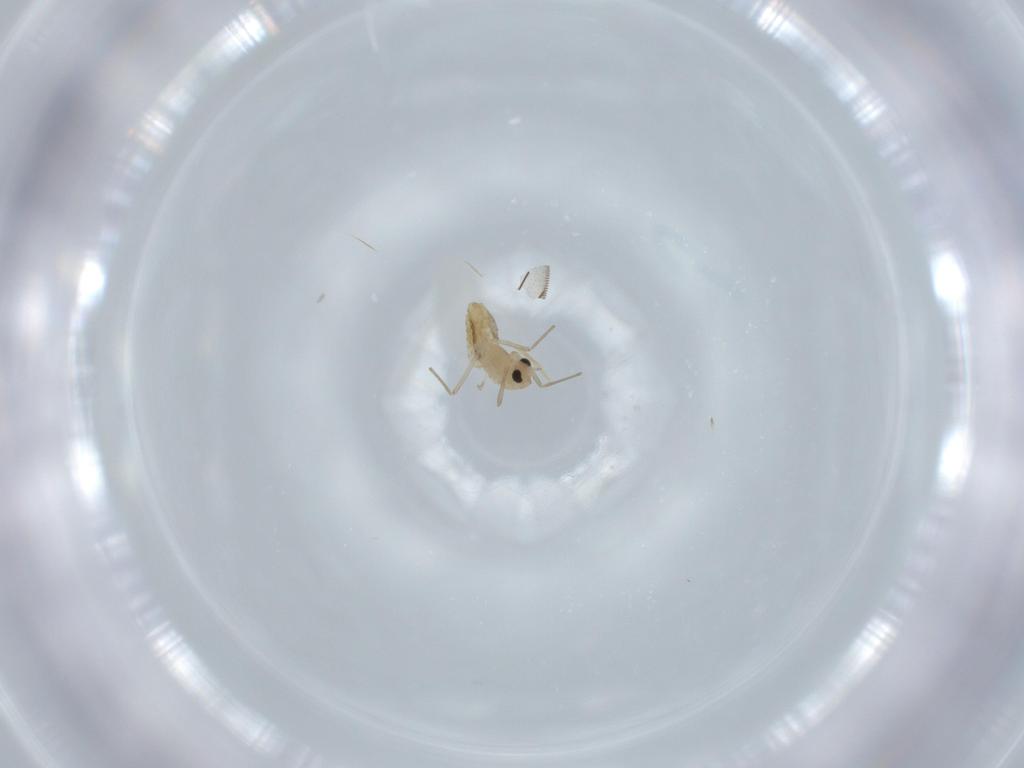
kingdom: Animalia
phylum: Arthropoda
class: Insecta
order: Diptera
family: Chironomidae
